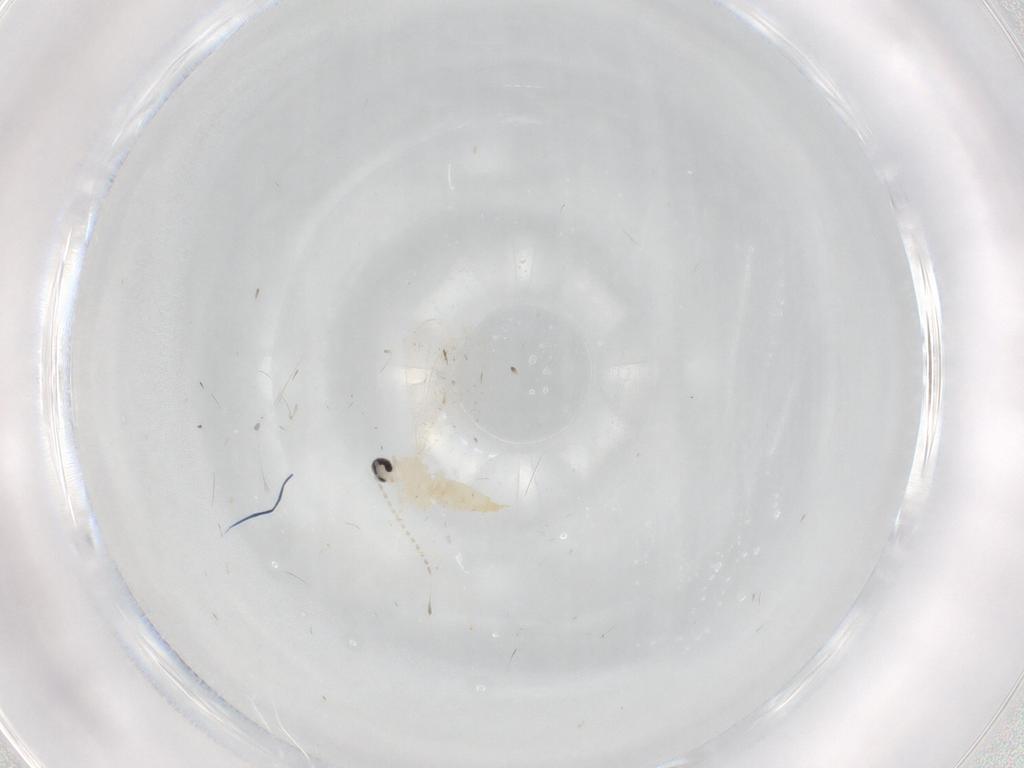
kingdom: Animalia
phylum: Arthropoda
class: Insecta
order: Diptera
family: Cecidomyiidae
